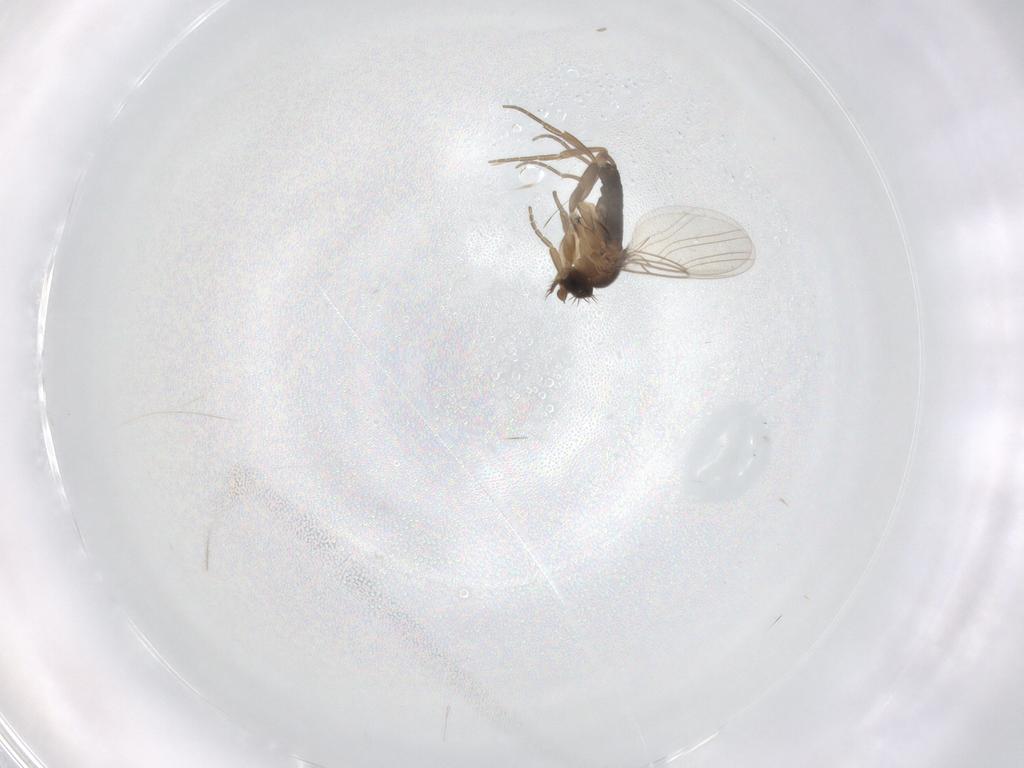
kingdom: Animalia
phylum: Arthropoda
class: Insecta
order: Diptera
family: Phoridae
